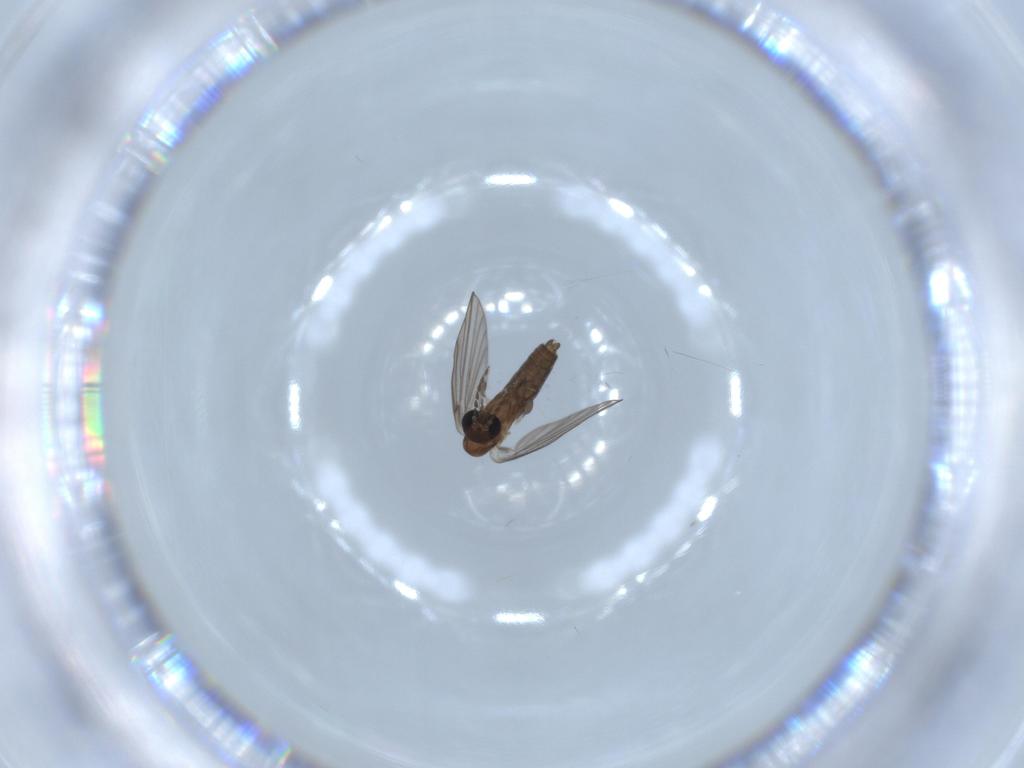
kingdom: Animalia
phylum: Arthropoda
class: Insecta
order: Diptera
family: Psychodidae
